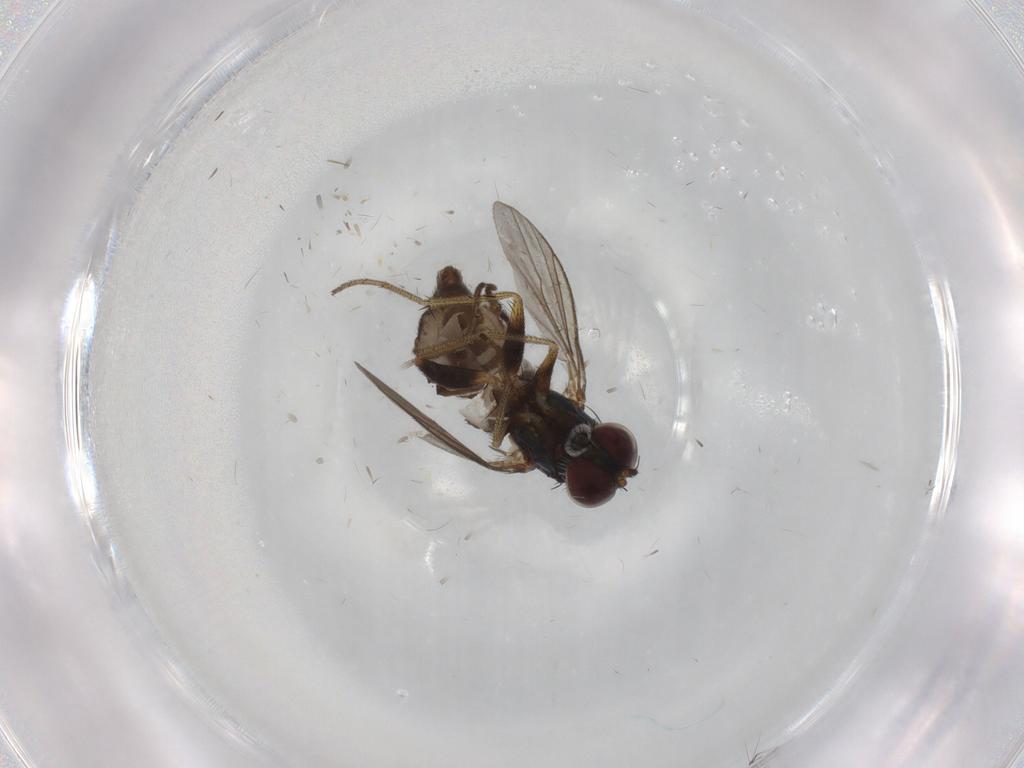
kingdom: Animalia
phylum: Arthropoda
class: Insecta
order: Diptera
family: Dolichopodidae
